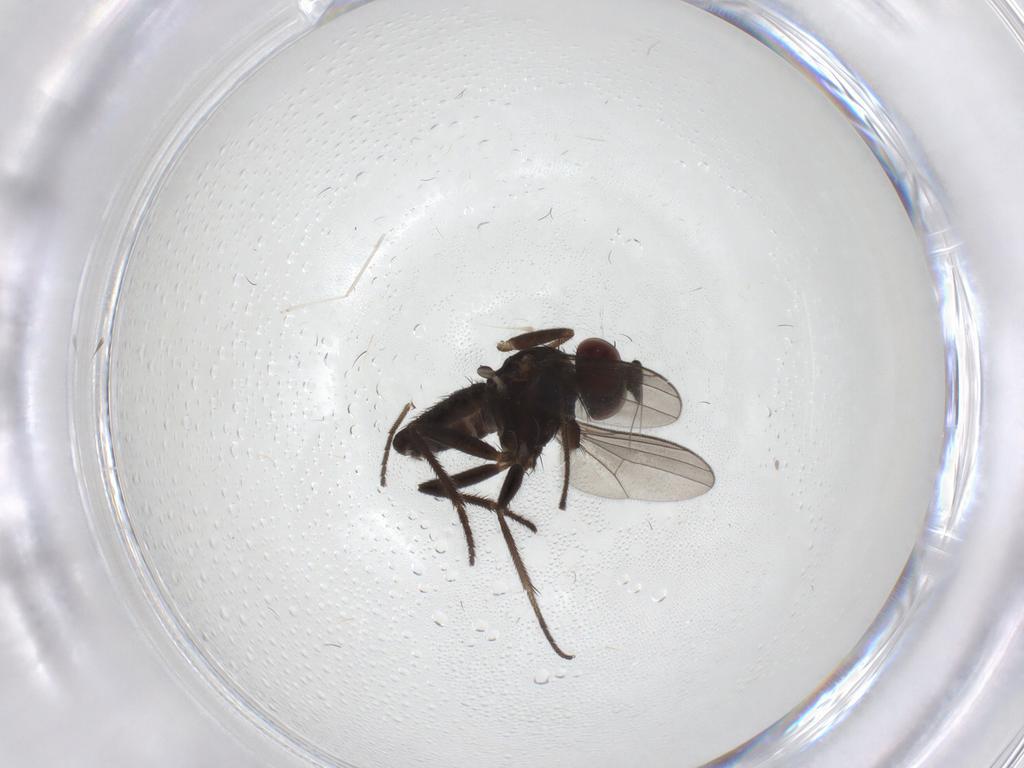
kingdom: Animalia
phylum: Arthropoda
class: Insecta
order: Diptera
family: Dolichopodidae
